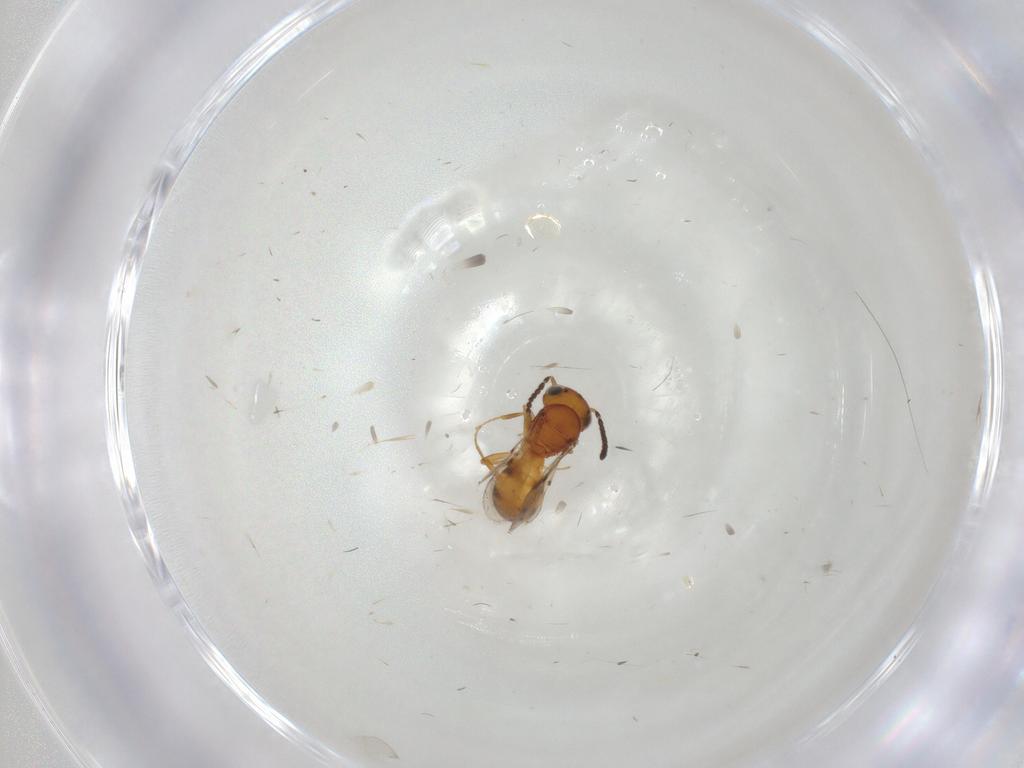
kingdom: Animalia
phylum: Arthropoda
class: Insecta
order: Hymenoptera
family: Scelionidae
